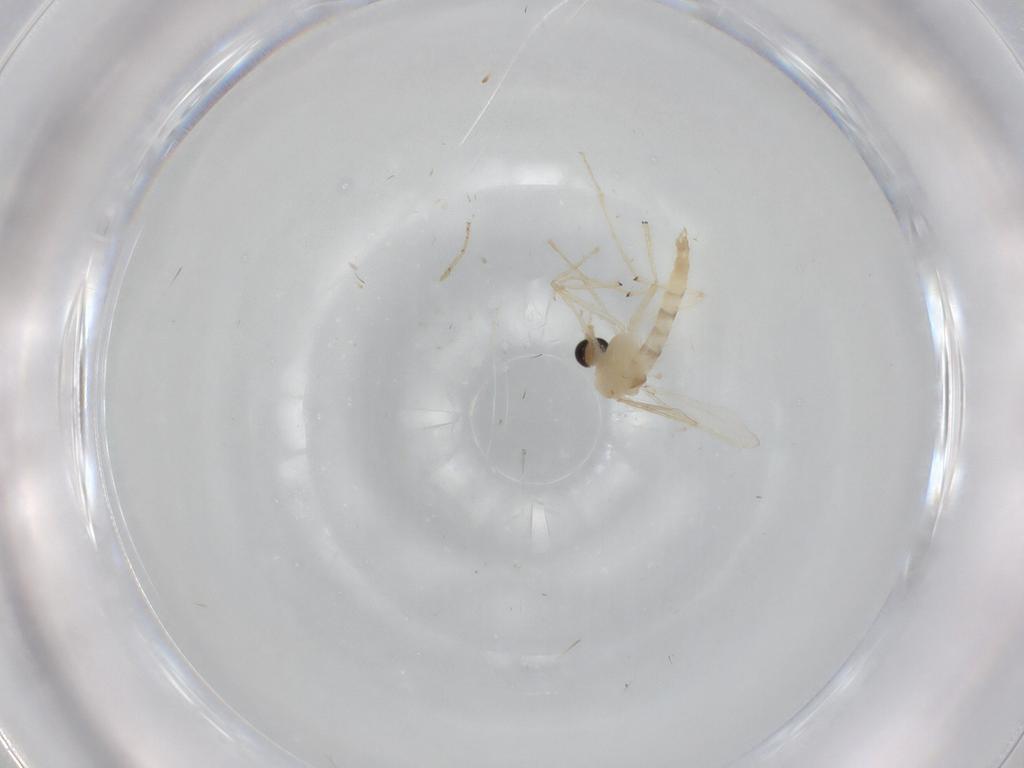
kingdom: Animalia
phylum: Arthropoda
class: Insecta
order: Diptera
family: Chironomidae
